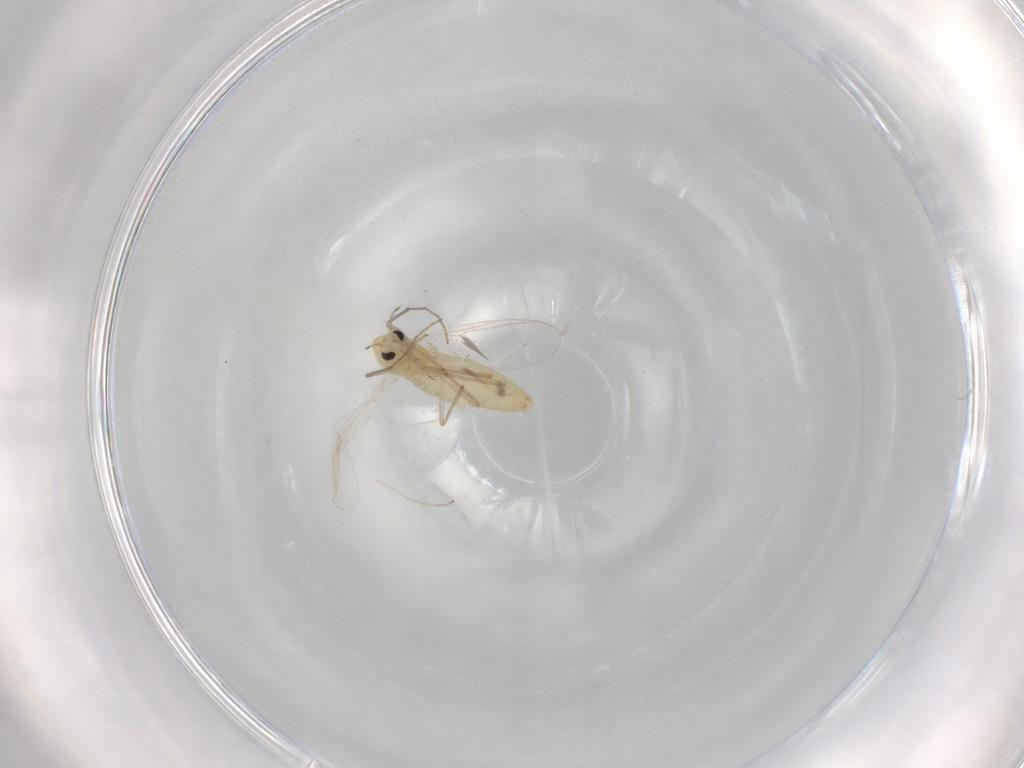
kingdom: Animalia
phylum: Arthropoda
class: Insecta
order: Diptera
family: Chironomidae
